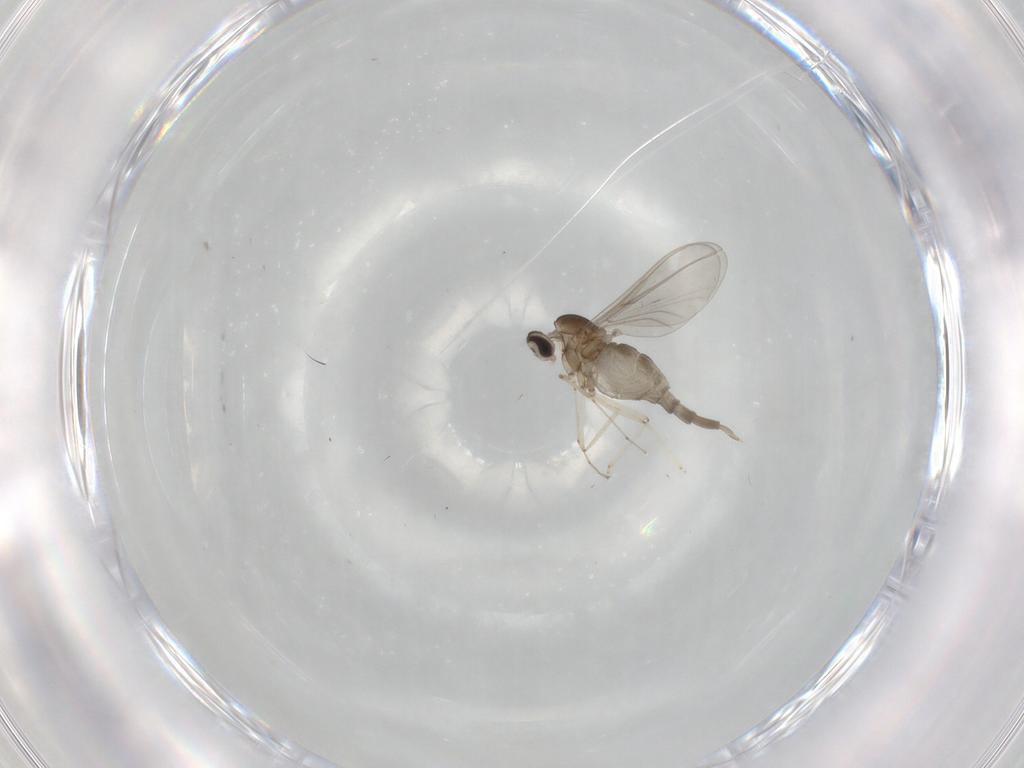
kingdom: Animalia
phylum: Arthropoda
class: Insecta
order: Diptera
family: Cecidomyiidae
